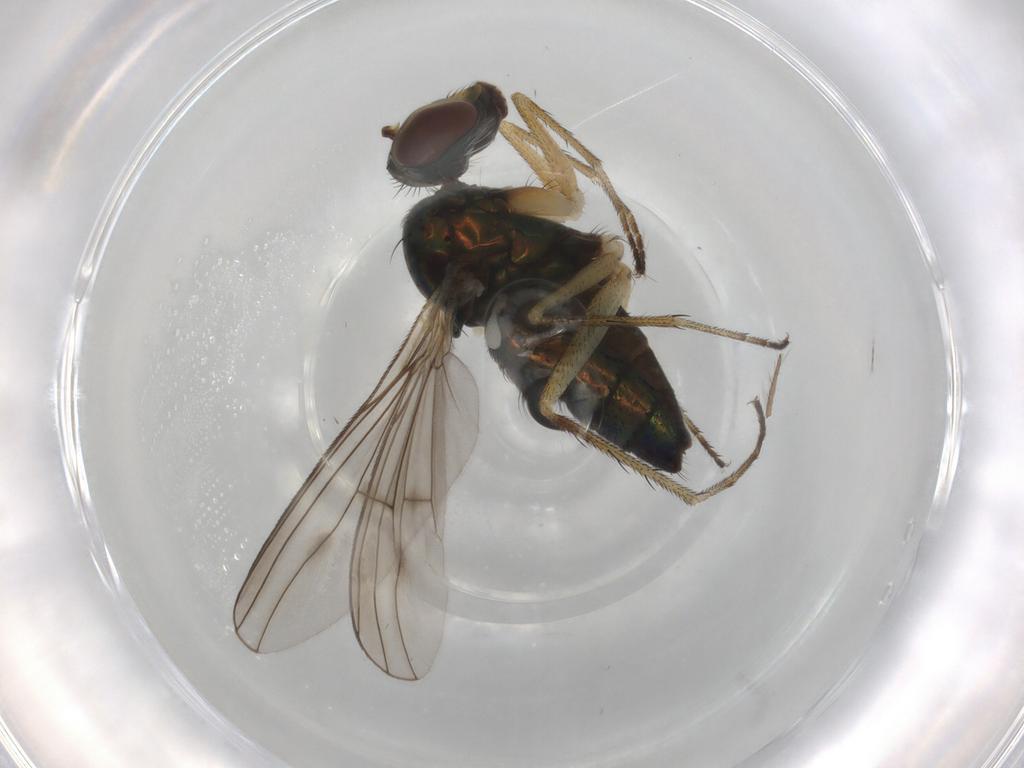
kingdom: Animalia
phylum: Arthropoda
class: Insecta
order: Diptera
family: Dolichopodidae
